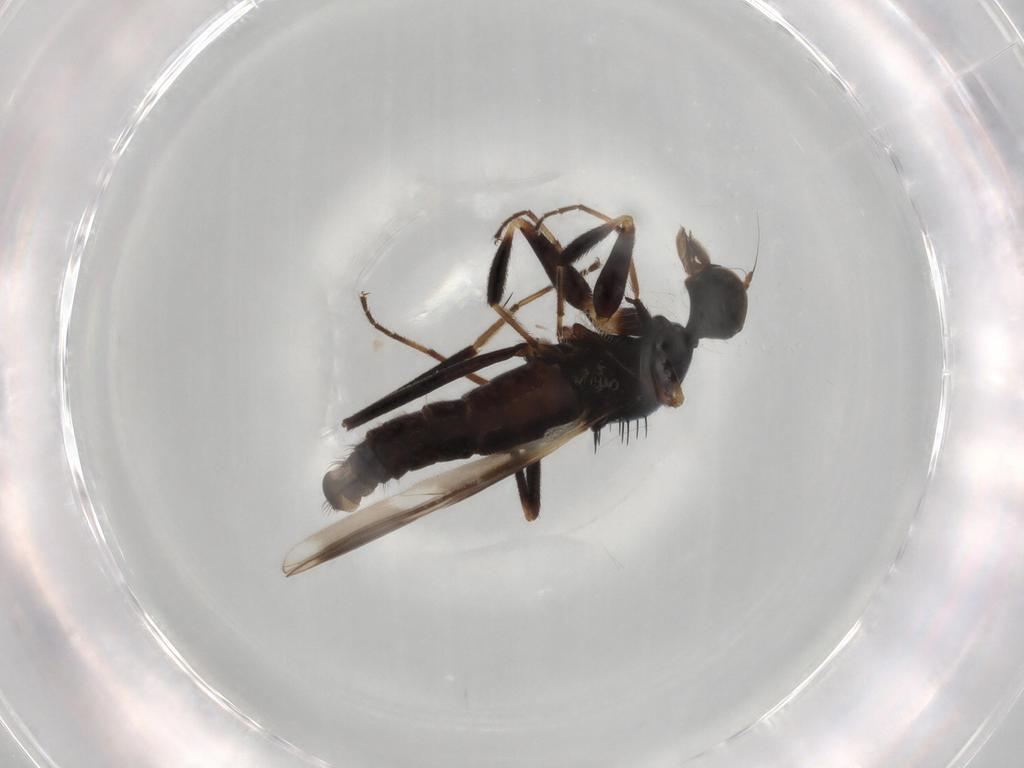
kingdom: Animalia
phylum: Arthropoda
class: Insecta
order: Diptera
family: Hybotidae
